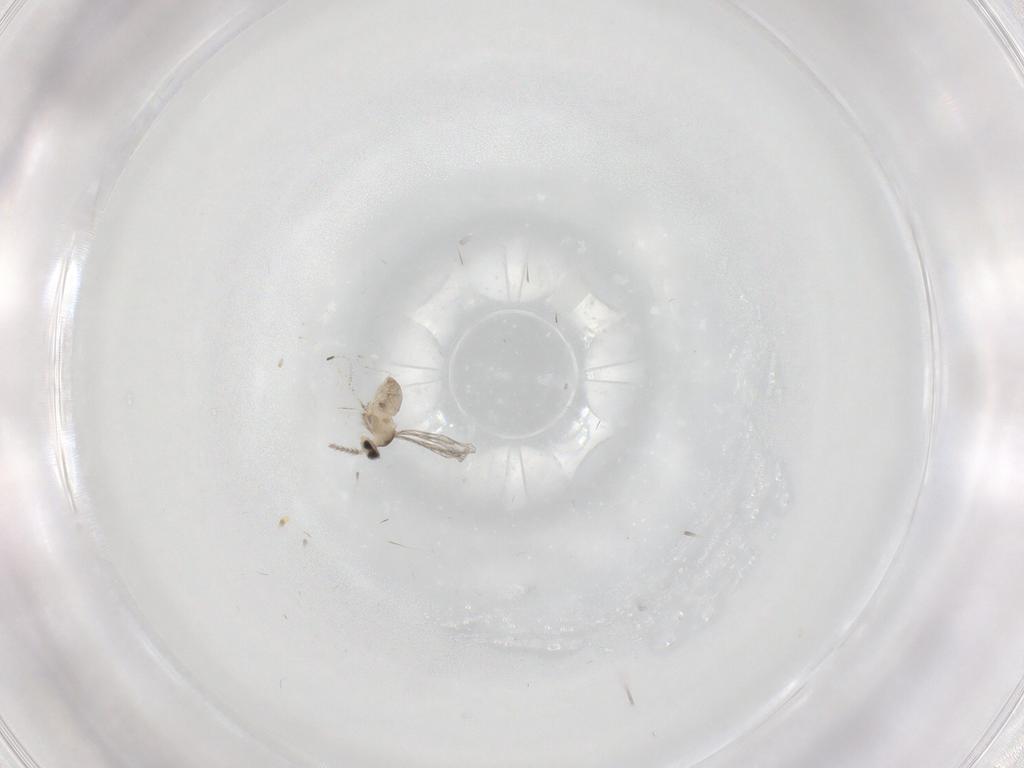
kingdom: Animalia
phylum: Arthropoda
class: Insecta
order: Diptera
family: Cecidomyiidae
